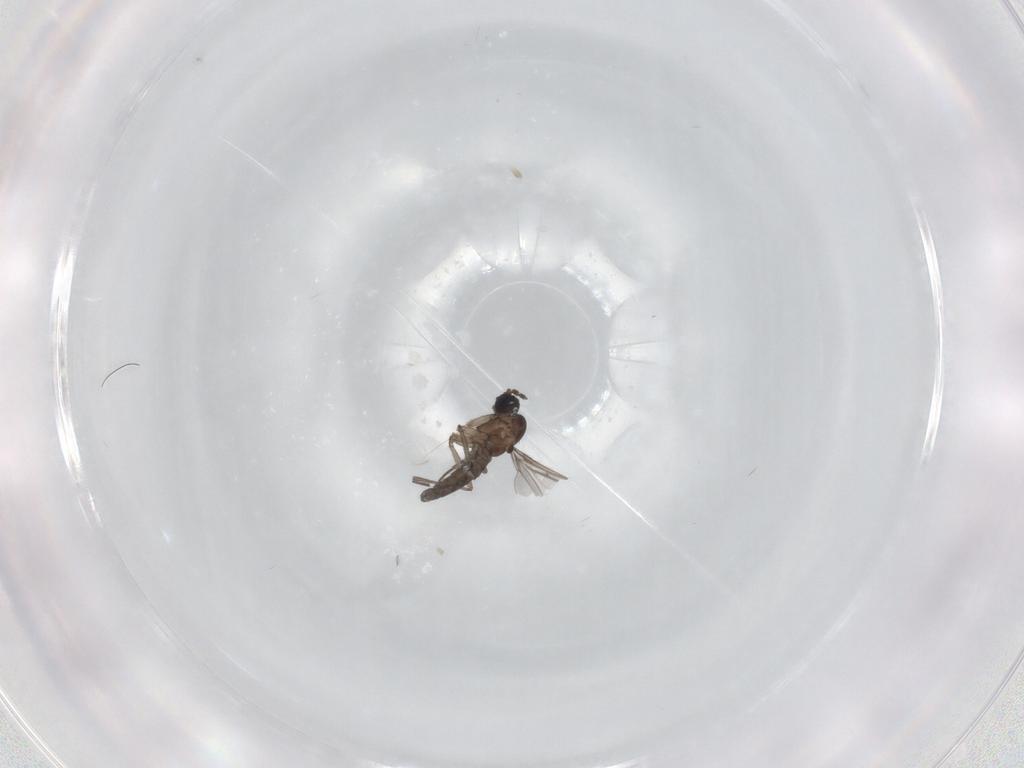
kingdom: Animalia
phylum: Arthropoda
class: Insecta
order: Diptera
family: Sciaridae
